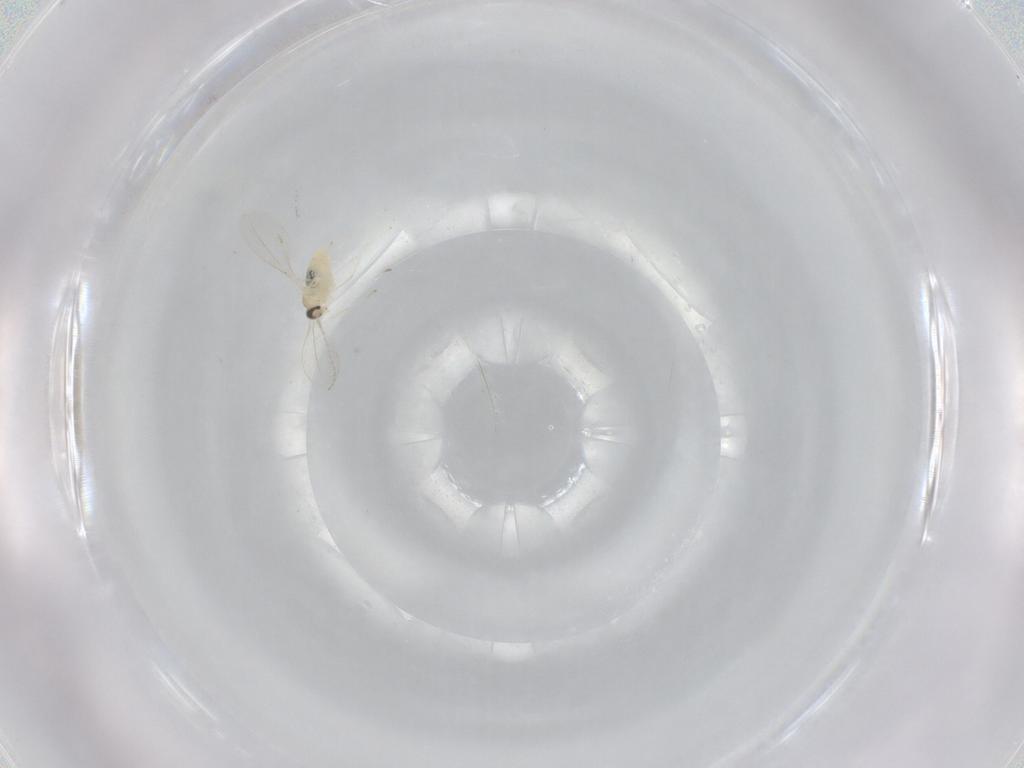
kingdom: Animalia
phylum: Arthropoda
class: Insecta
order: Diptera
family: Cecidomyiidae
